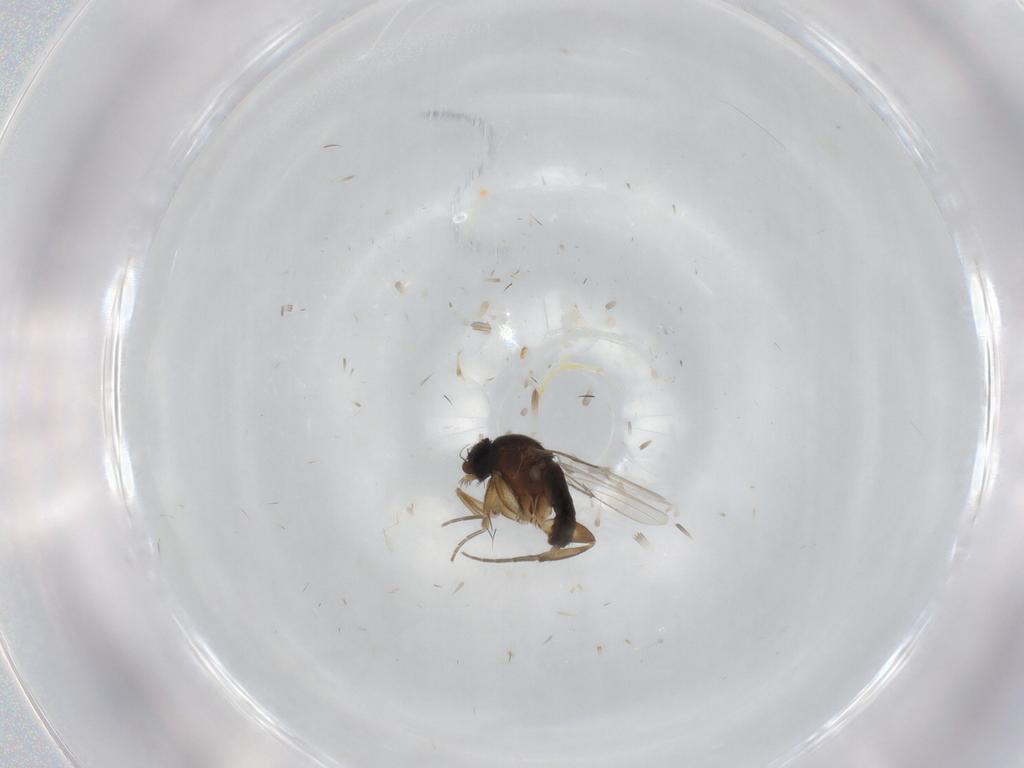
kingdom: Animalia
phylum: Arthropoda
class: Insecta
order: Diptera
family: Phoridae
